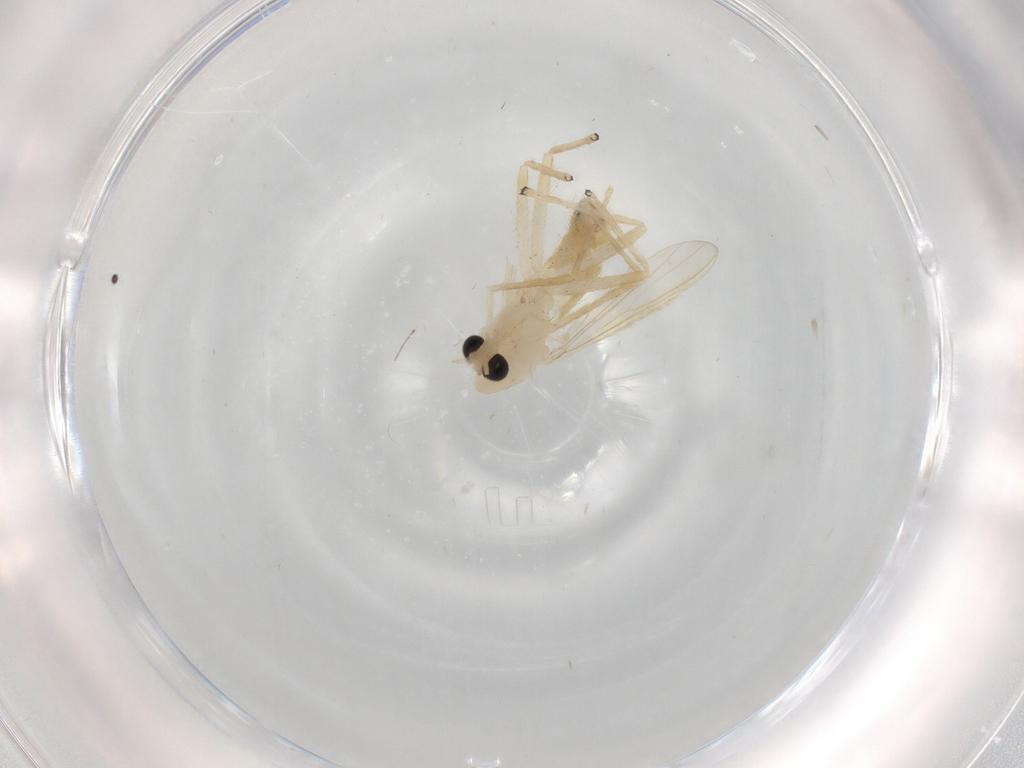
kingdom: Animalia
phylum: Arthropoda
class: Insecta
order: Diptera
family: Chironomidae
